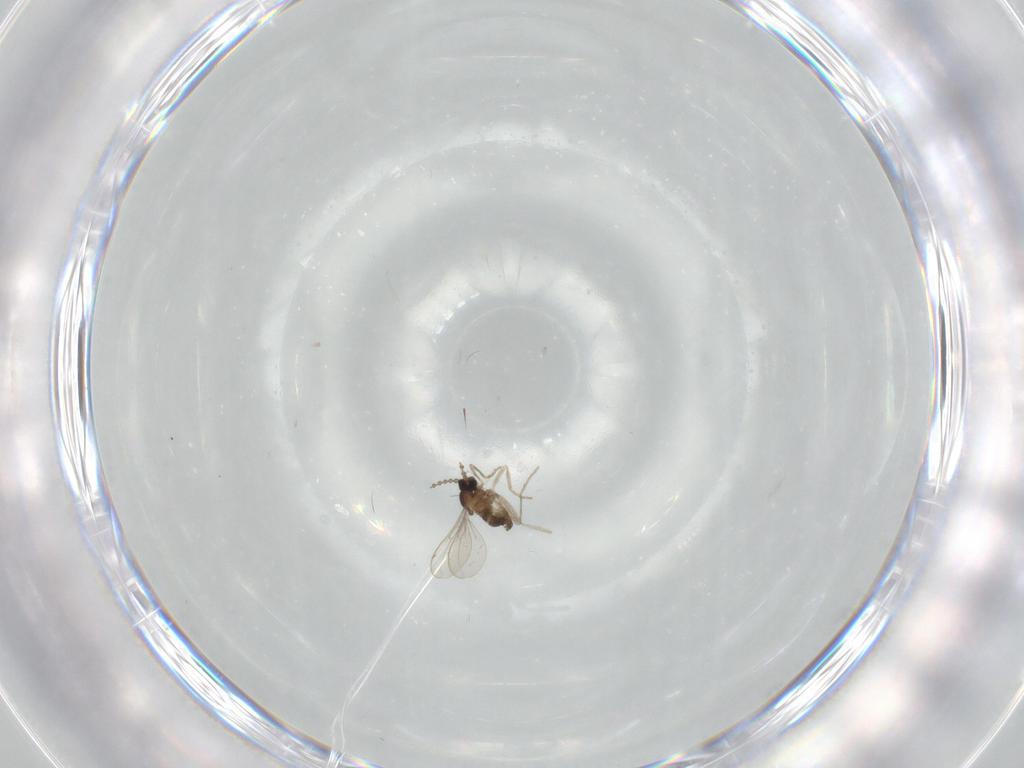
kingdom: Animalia
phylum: Arthropoda
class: Insecta
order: Diptera
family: Cecidomyiidae
